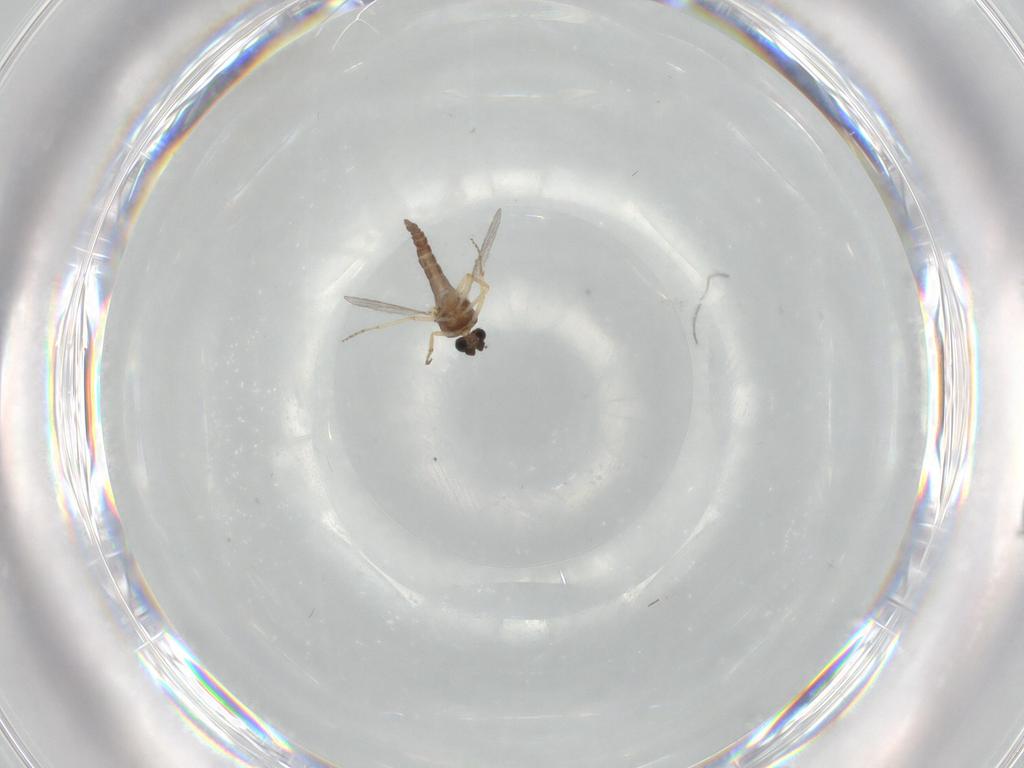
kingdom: Animalia
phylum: Arthropoda
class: Insecta
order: Diptera
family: Ceratopogonidae
